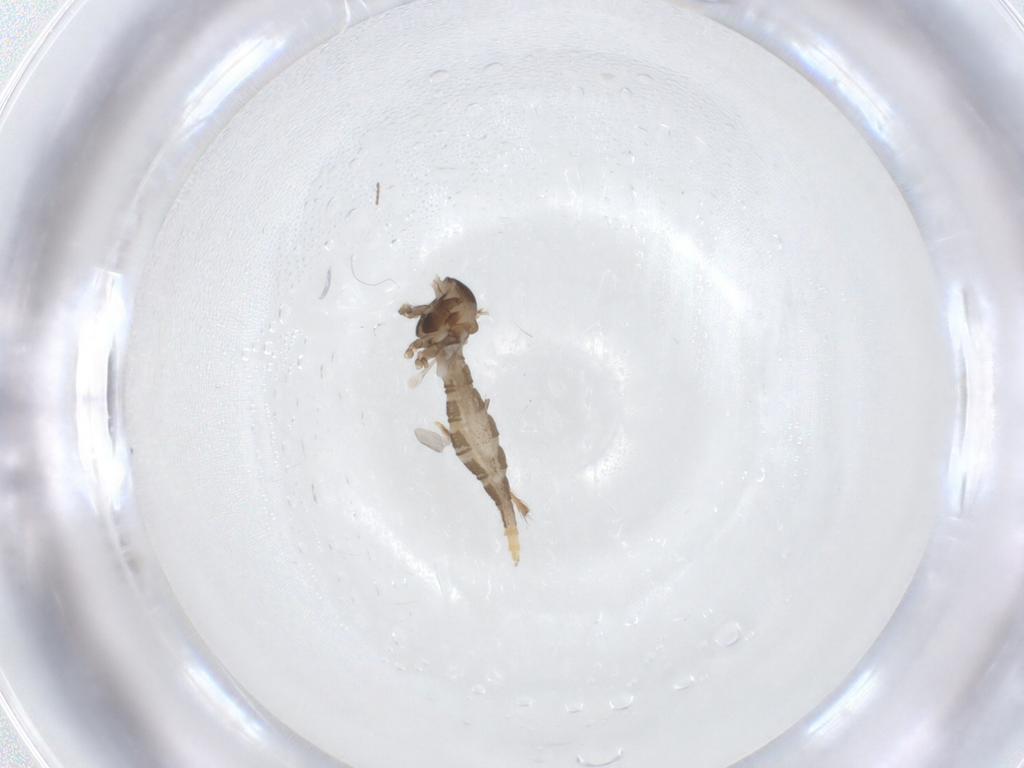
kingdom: Animalia
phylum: Arthropoda
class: Insecta
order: Diptera
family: Cecidomyiidae
